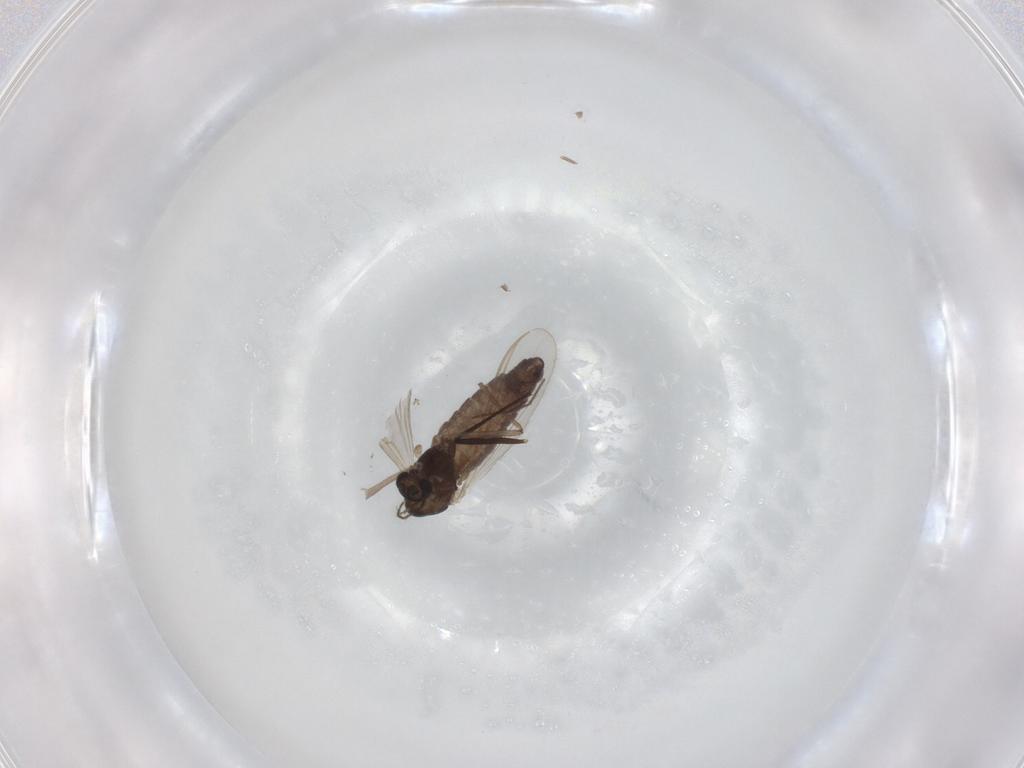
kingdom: Animalia
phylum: Arthropoda
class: Insecta
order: Diptera
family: Chironomidae
